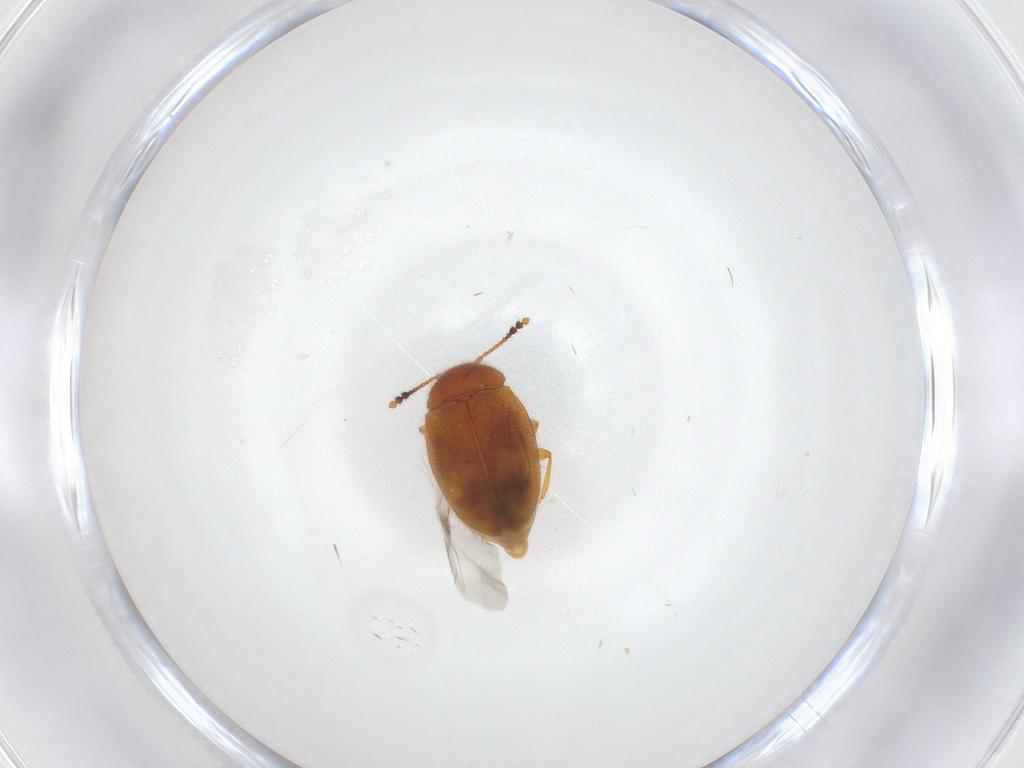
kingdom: Animalia
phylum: Arthropoda
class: Insecta
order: Coleoptera
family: Erotylidae
